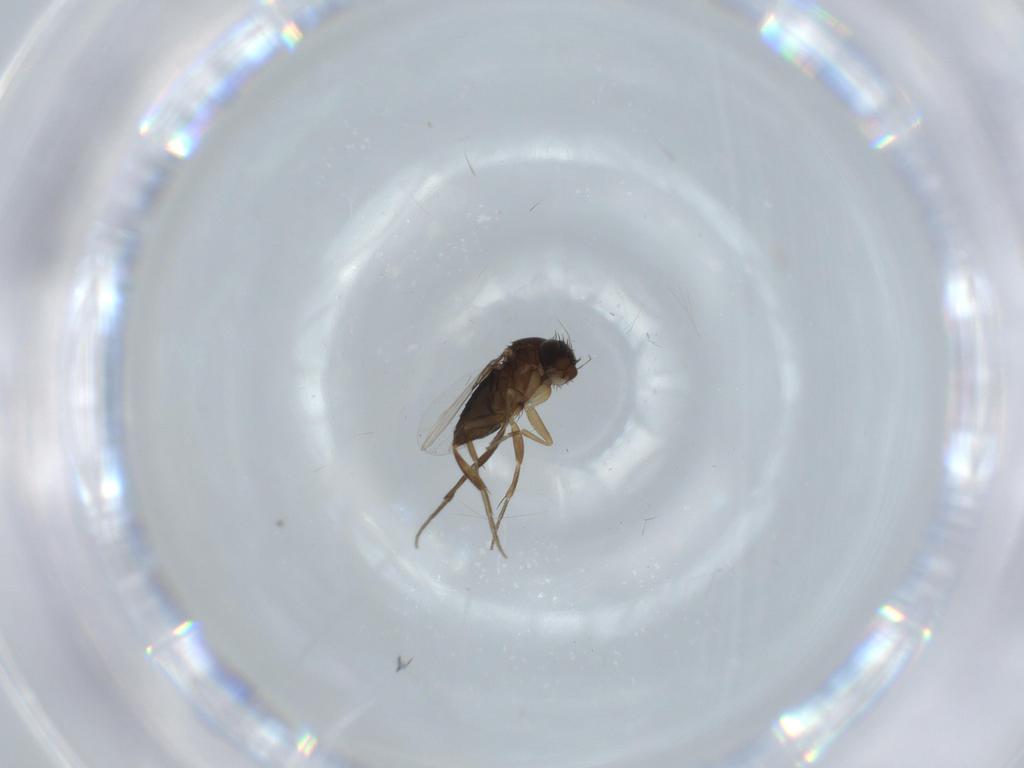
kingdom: Animalia
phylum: Arthropoda
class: Insecta
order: Diptera
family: Phoridae
